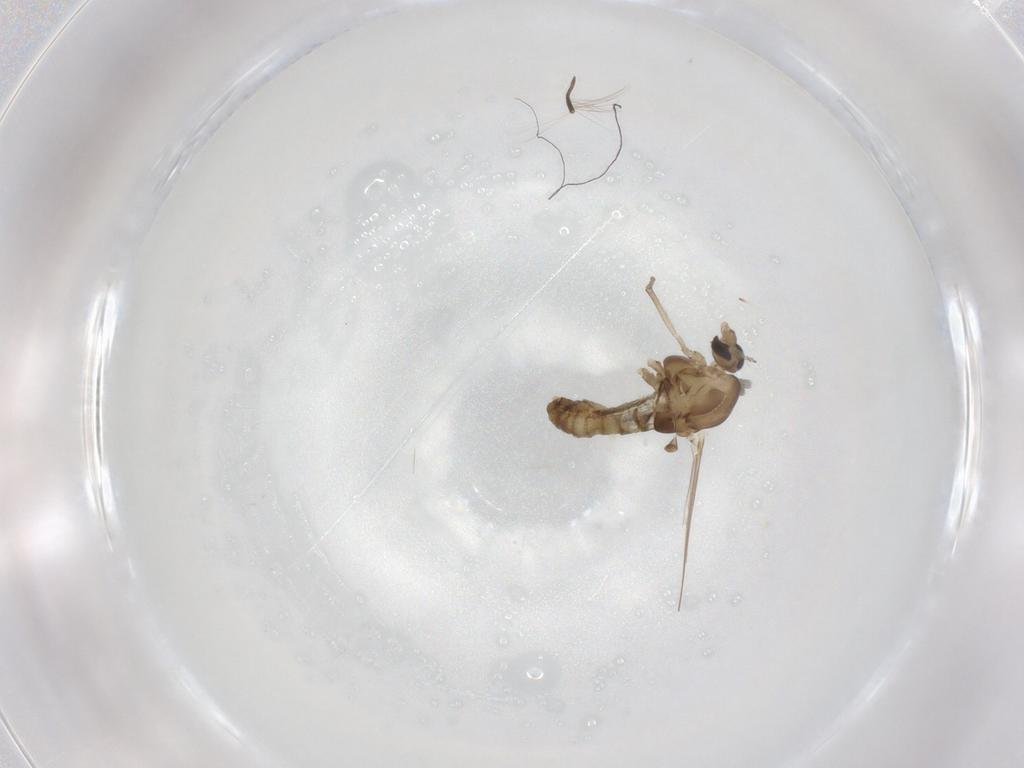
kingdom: Animalia
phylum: Arthropoda
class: Insecta
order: Diptera
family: Chironomidae
